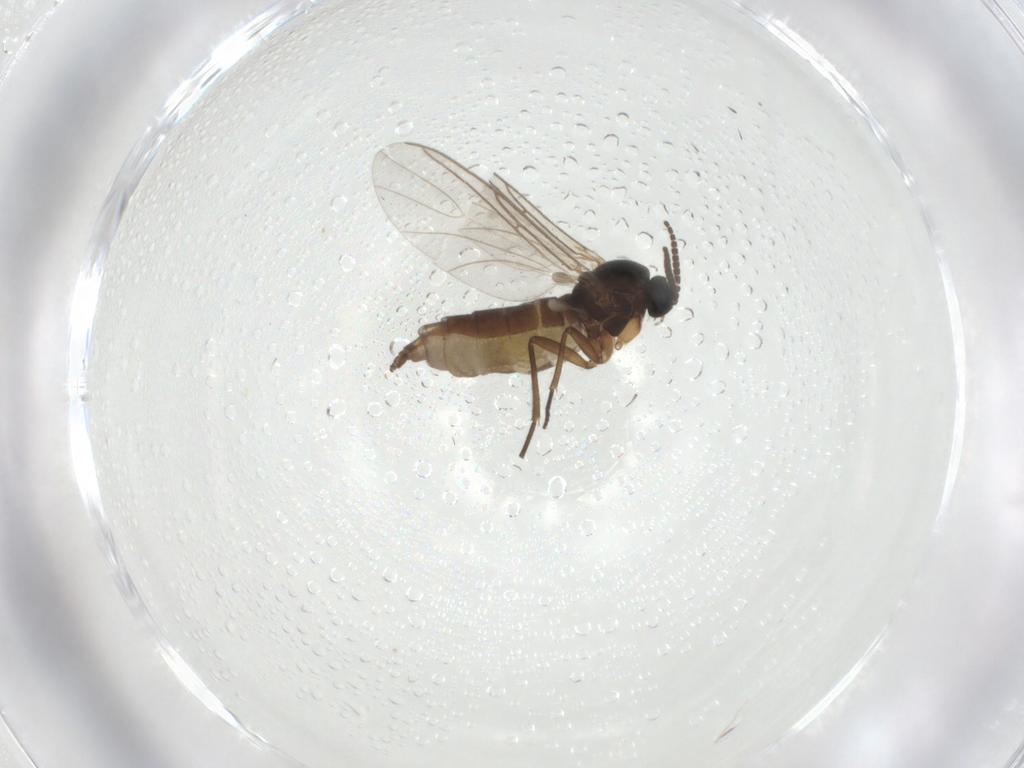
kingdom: Animalia
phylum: Arthropoda
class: Insecta
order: Diptera
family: Sciaridae
